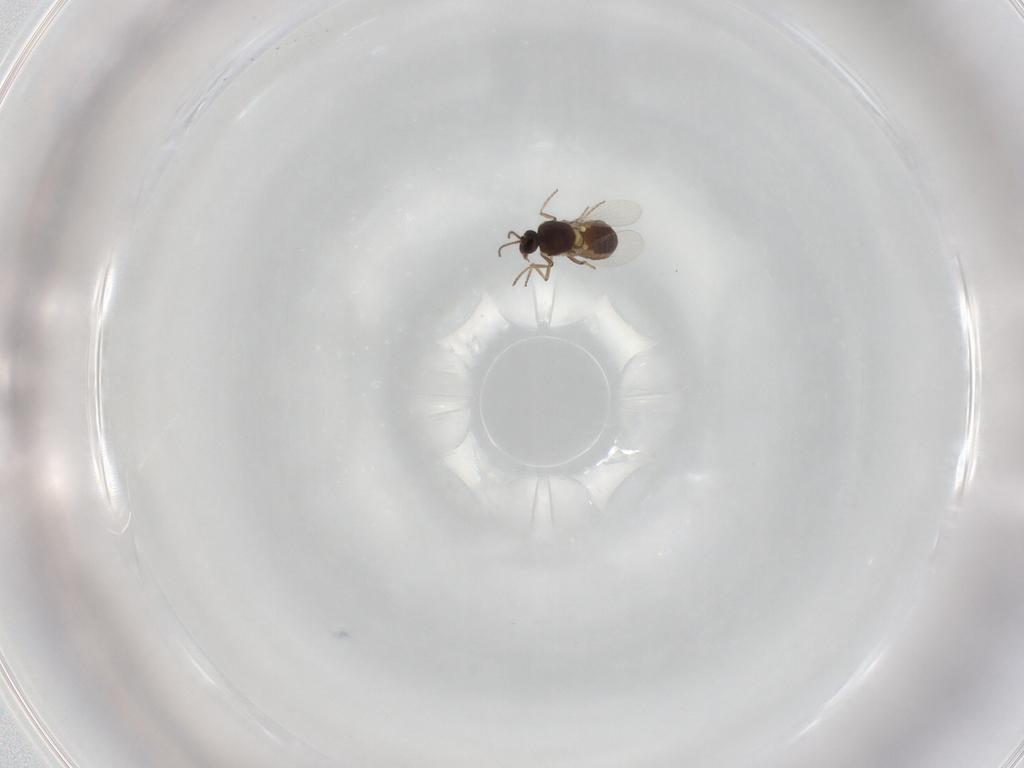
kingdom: Animalia
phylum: Arthropoda
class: Insecta
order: Diptera
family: Ceratopogonidae
